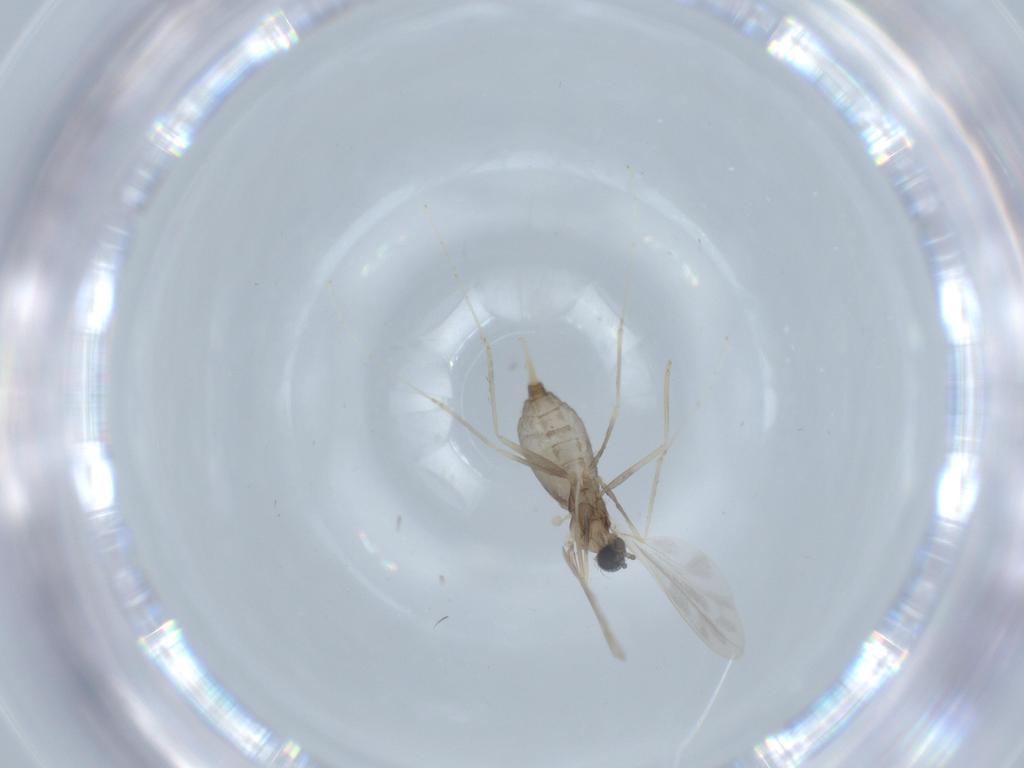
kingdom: Animalia
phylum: Arthropoda
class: Insecta
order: Diptera
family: Cecidomyiidae
